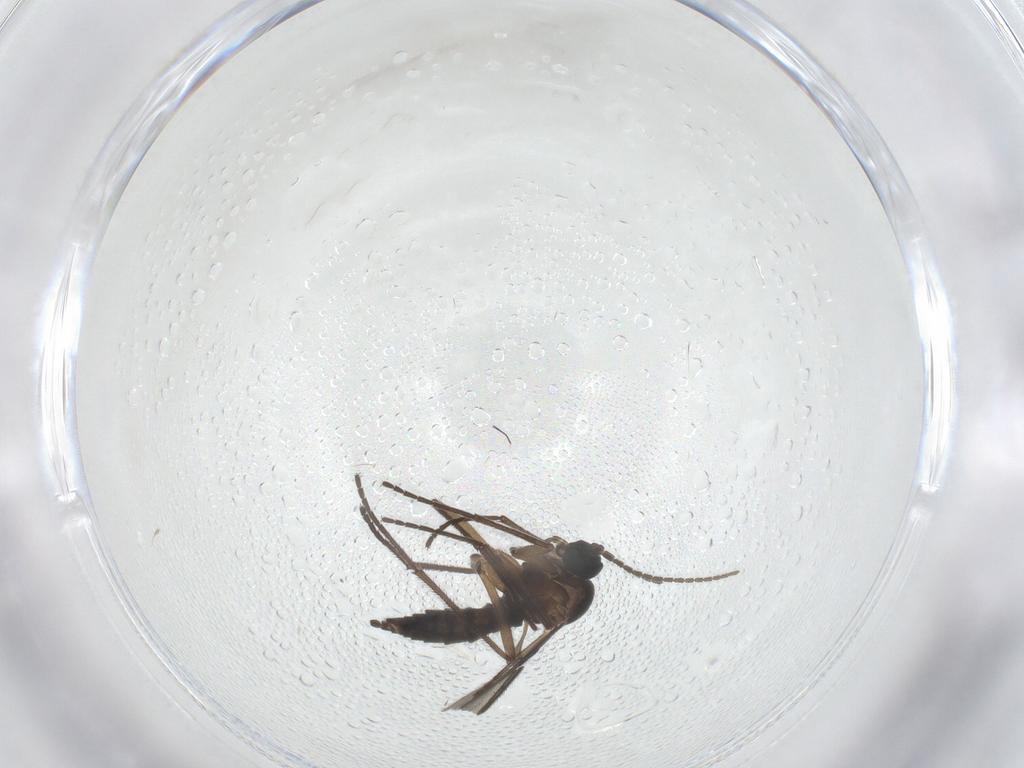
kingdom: Animalia
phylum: Arthropoda
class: Insecta
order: Diptera
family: Sciaridae
